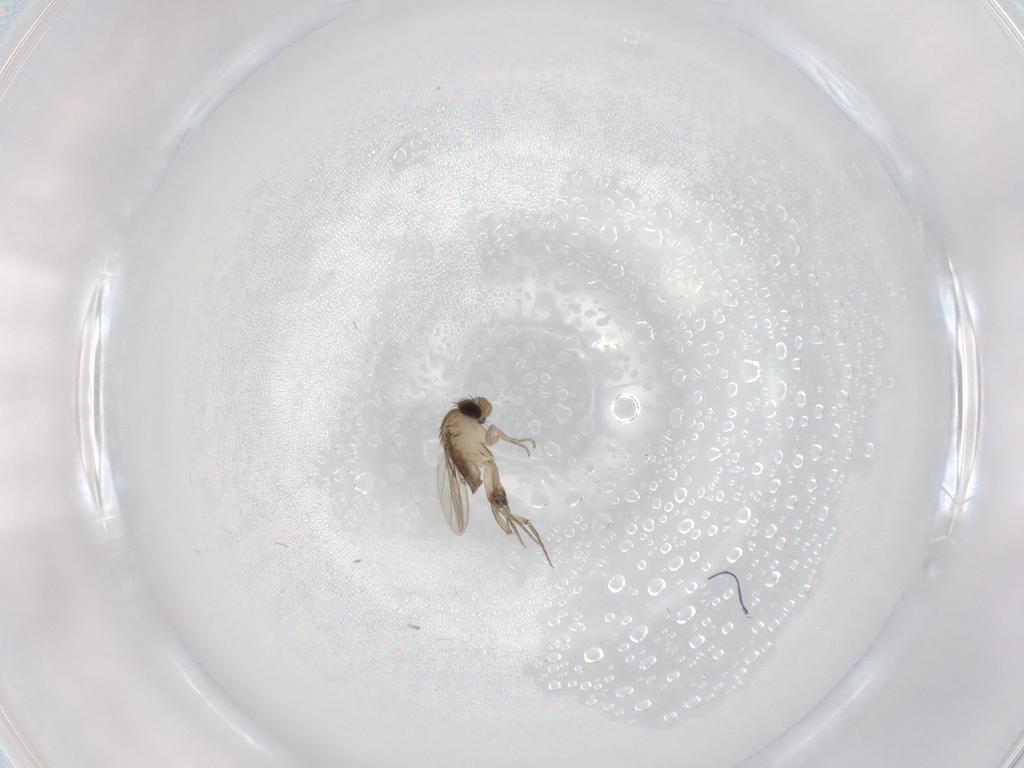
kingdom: Animalia
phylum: Arthropoda
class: Insecta
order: Diptera
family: Phoridae
